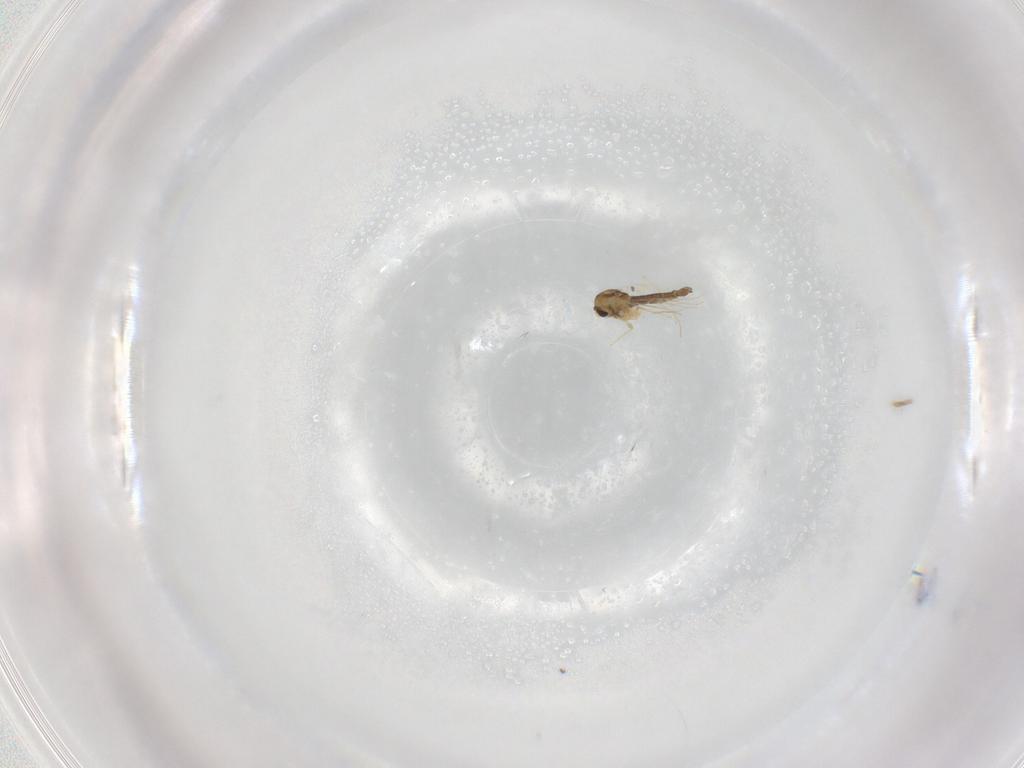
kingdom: Animalia
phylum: Arthropoda
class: Insecta
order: Diptera
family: Chironomidae
